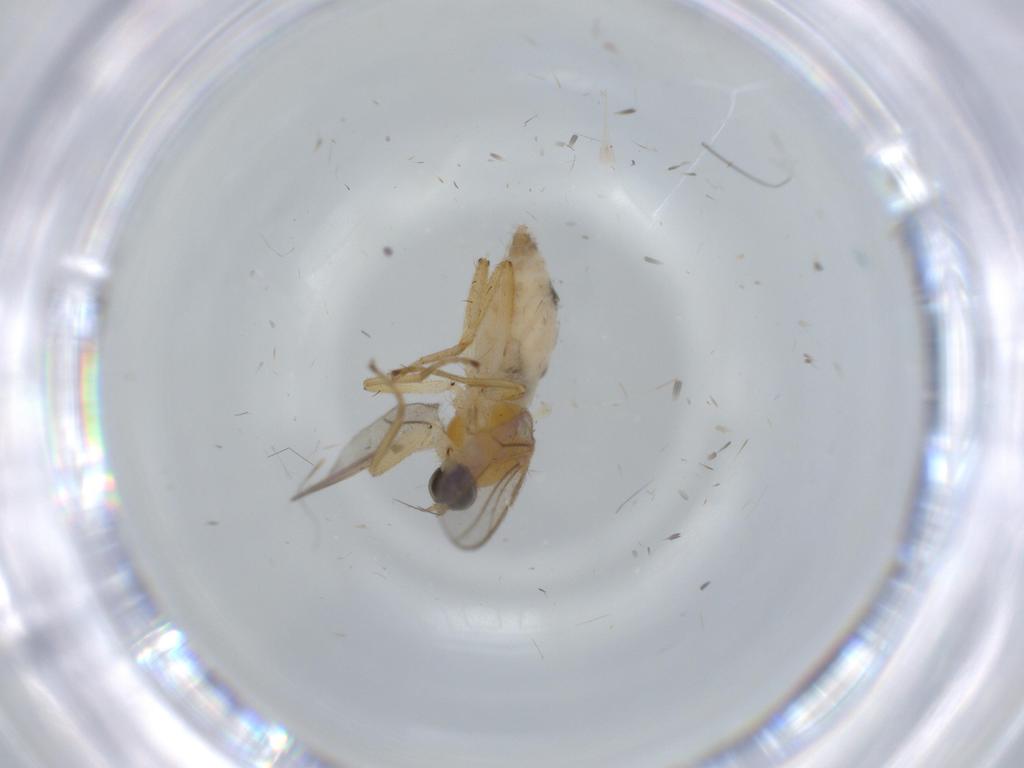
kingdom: Animalia
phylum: Arthropoda
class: Insecta
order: Diptera
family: Hybotidae
